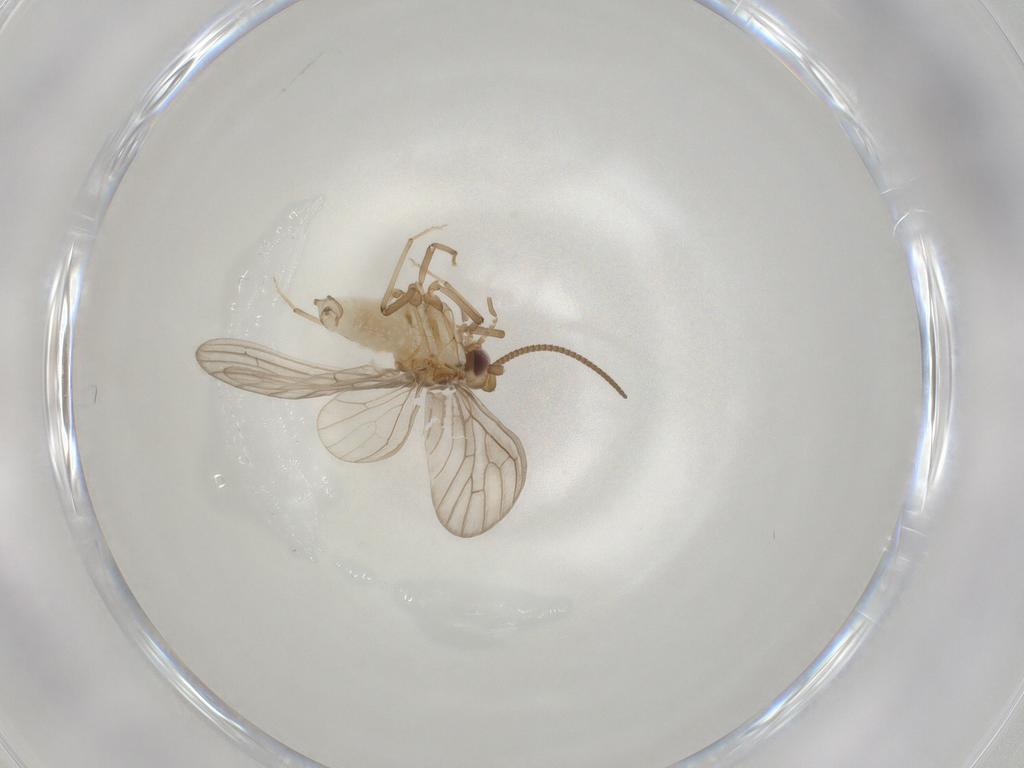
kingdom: Animalia
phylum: Arthropoda
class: Insecta
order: Neuroptera
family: Coniopterygidae
